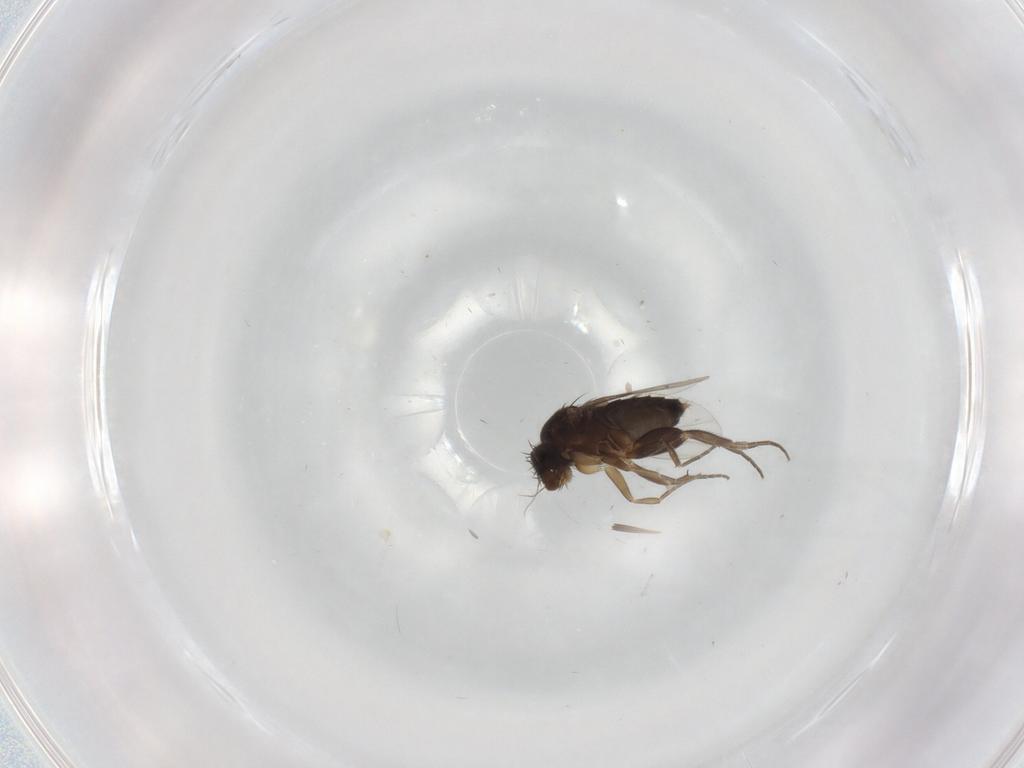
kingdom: Animalia
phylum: Arthropoda
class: Insecta
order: Diptera
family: Phoridae
